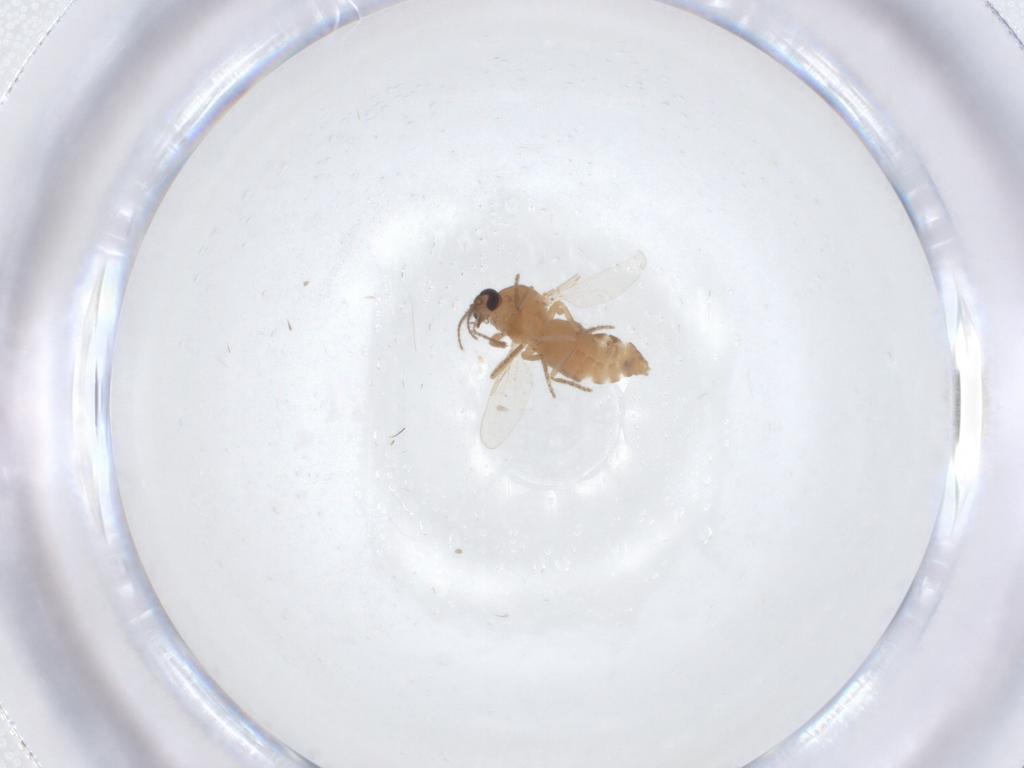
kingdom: Animalia
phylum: Arthropoda
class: Insecta
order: Diptera
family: Ceratopogonidae
